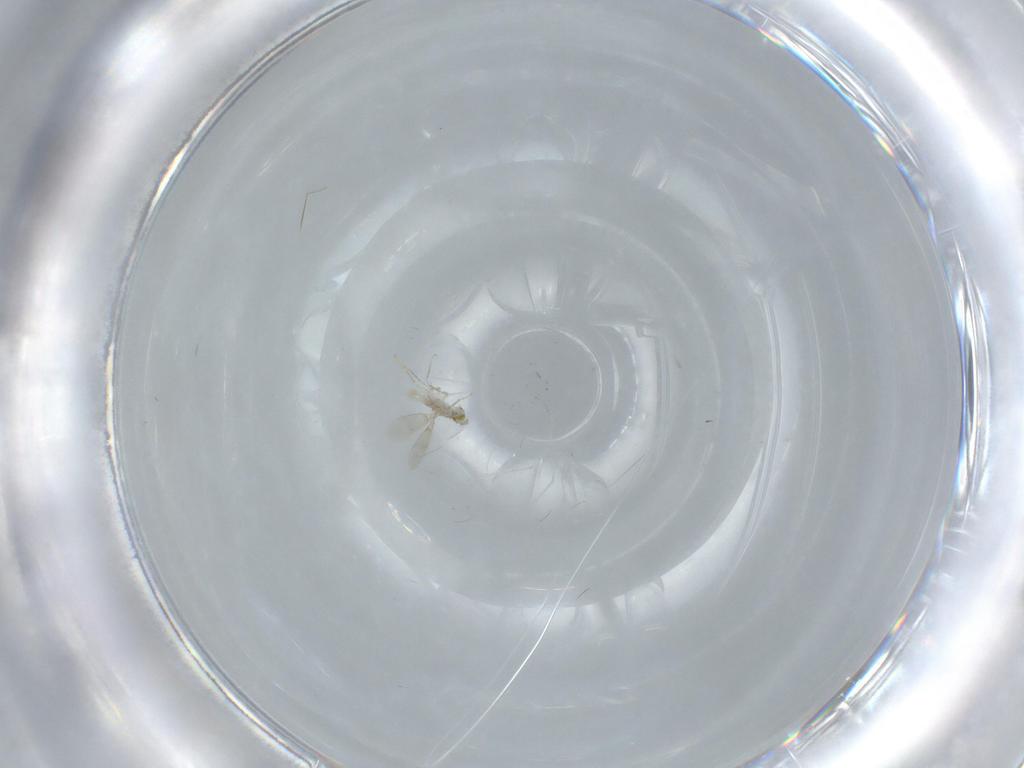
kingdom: Animalia
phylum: Arthropoda
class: Insecta
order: Hymenoptera
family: Aphelinidae
